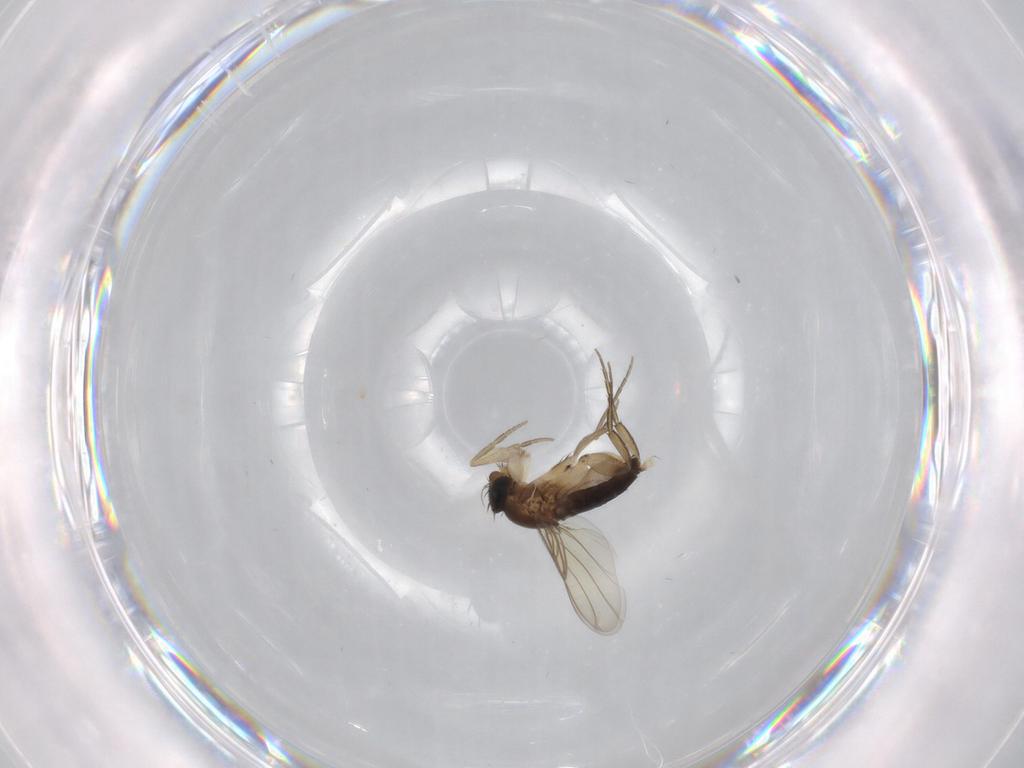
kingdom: Animalia
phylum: Arthropoda
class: Insecta
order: Diptera
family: Phoridae
